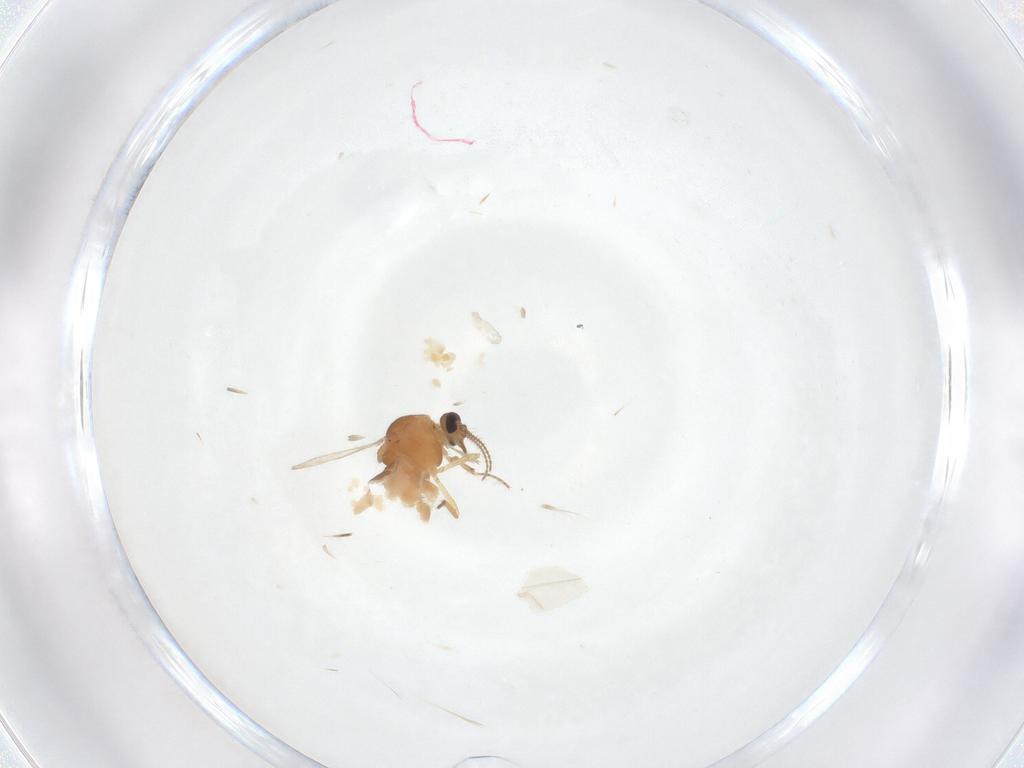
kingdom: Animalia
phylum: Arthropoda
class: Insecta
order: Diptera
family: Ceratopogonidae
